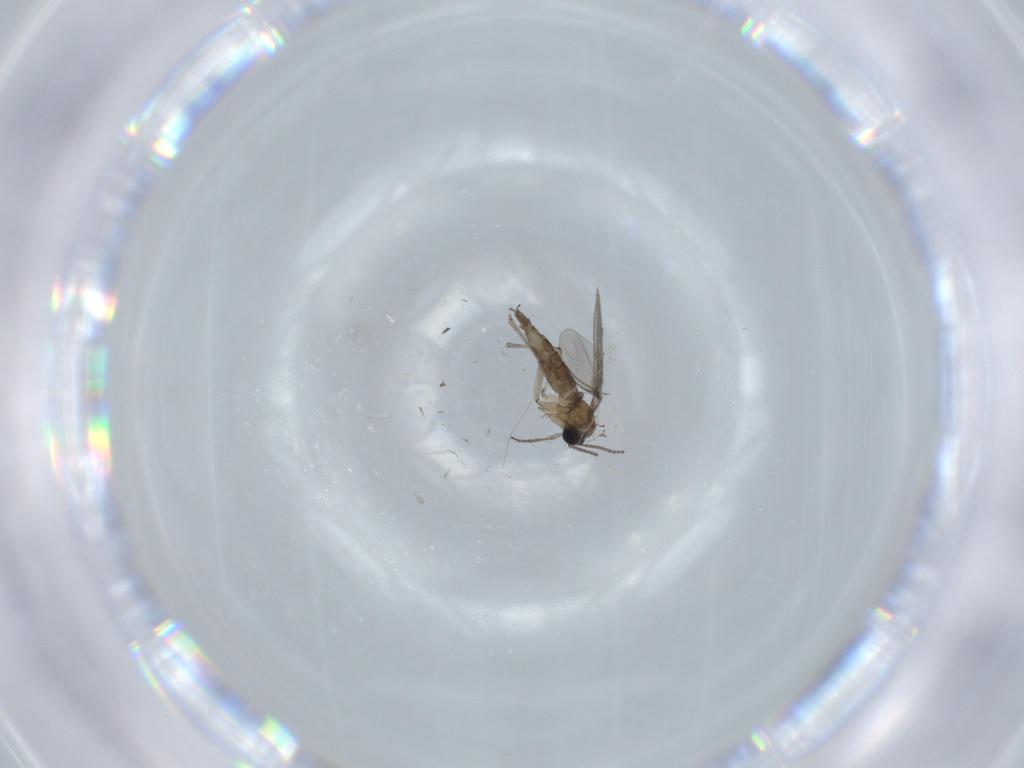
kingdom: Animalia
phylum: Arthropoda
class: Insecta
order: Diptera
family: Sciaridae
